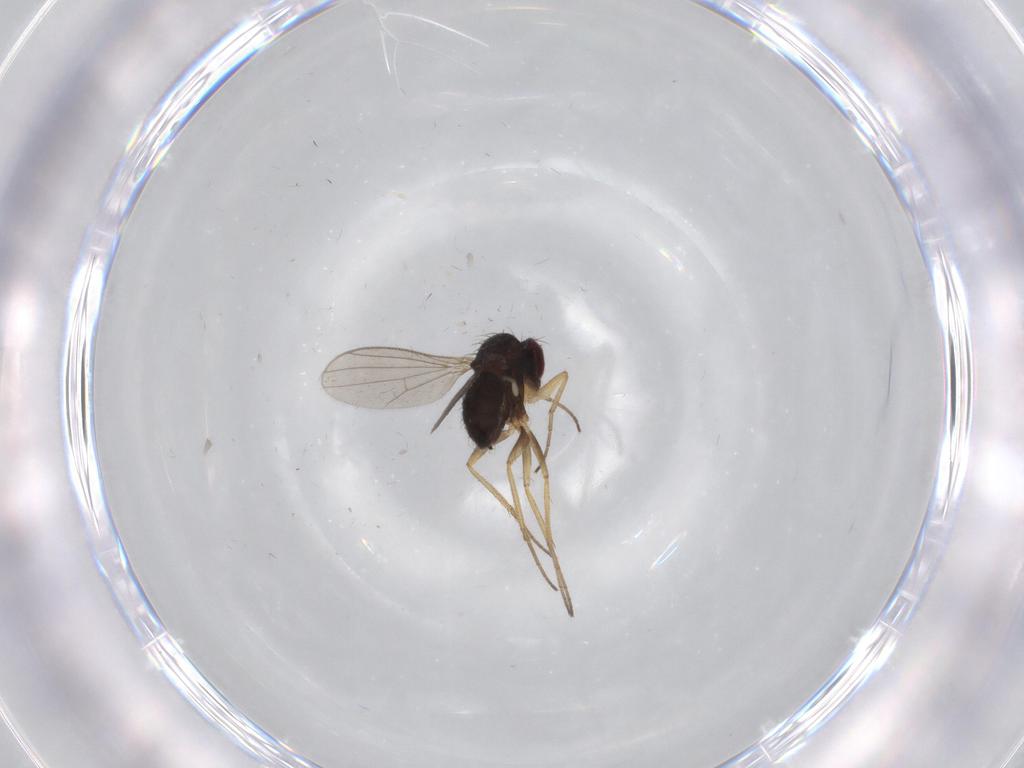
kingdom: Animalia
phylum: Arthropoda
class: Insecta
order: Diptera
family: Dolichopodidae
